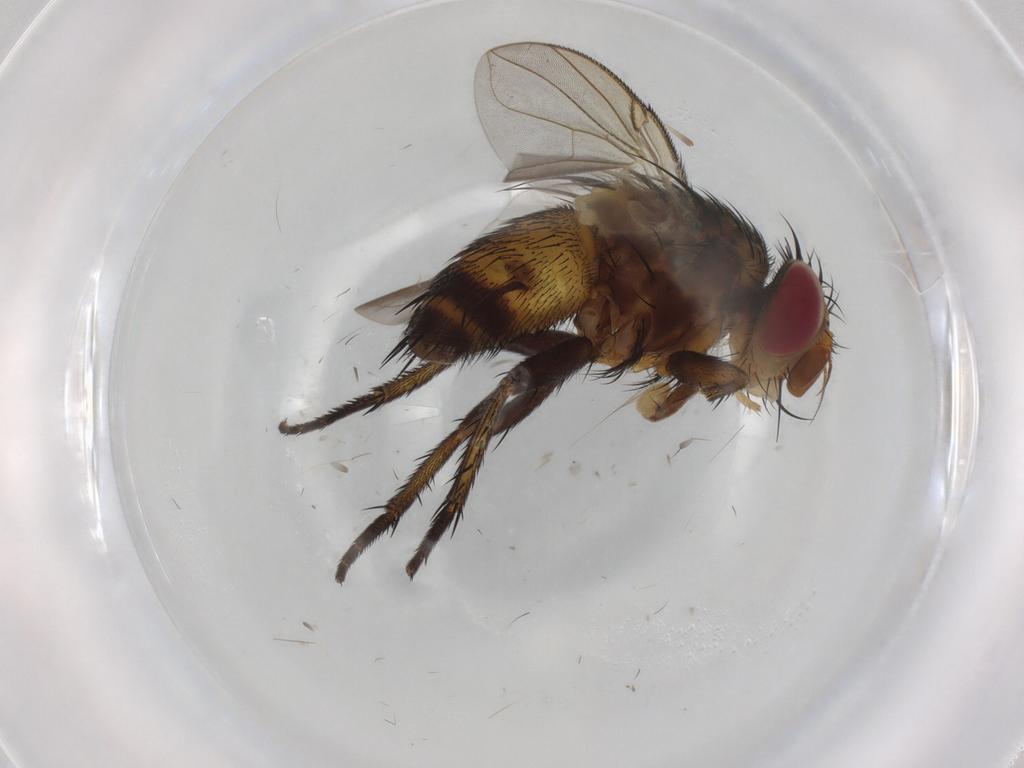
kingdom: Animalia
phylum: Arthropoda
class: Insecta
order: Diptera
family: Tachinidae
